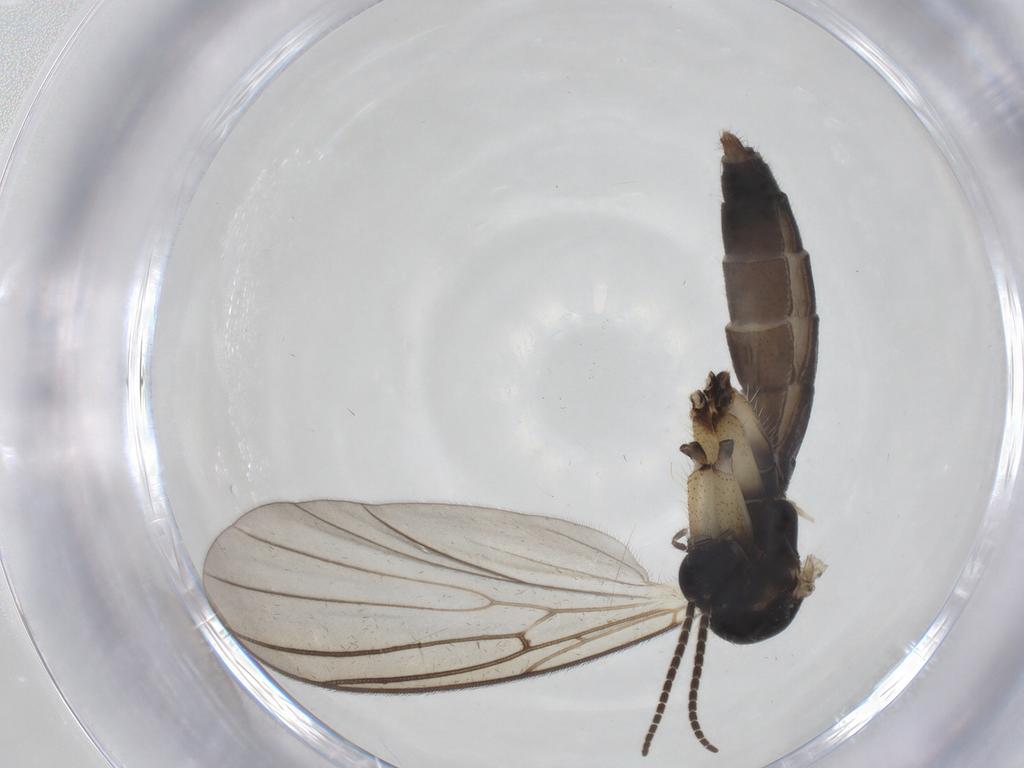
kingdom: Animalia
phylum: Arthropoda
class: Insecta
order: Diptera
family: Mycetophilidae
